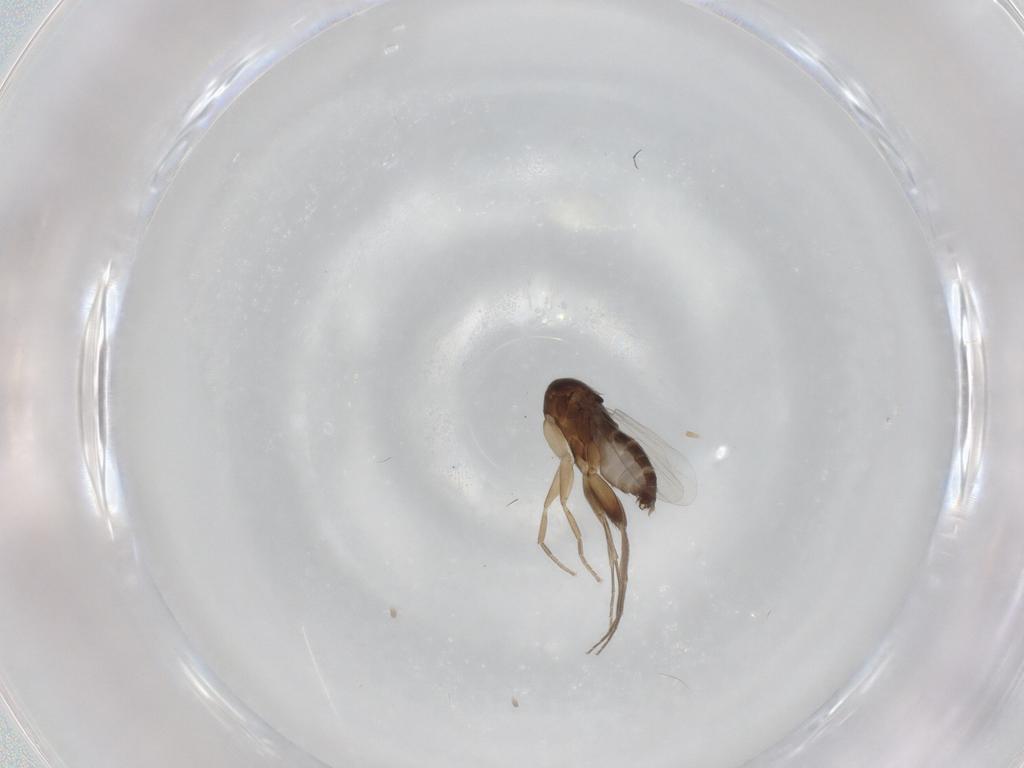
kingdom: Animalia
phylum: Arthropoda
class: Insecta
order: Diptera
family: Phoridae
